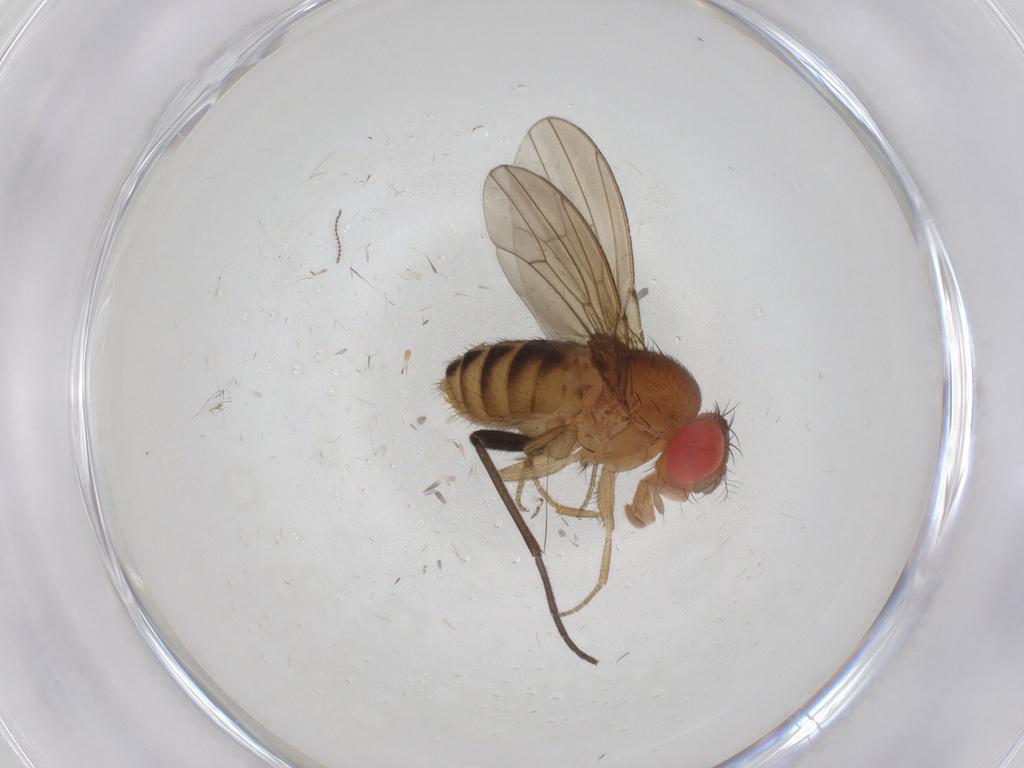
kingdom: Animalia
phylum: Arthropoda
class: Insecta
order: Diptera
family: Drosophilidae
